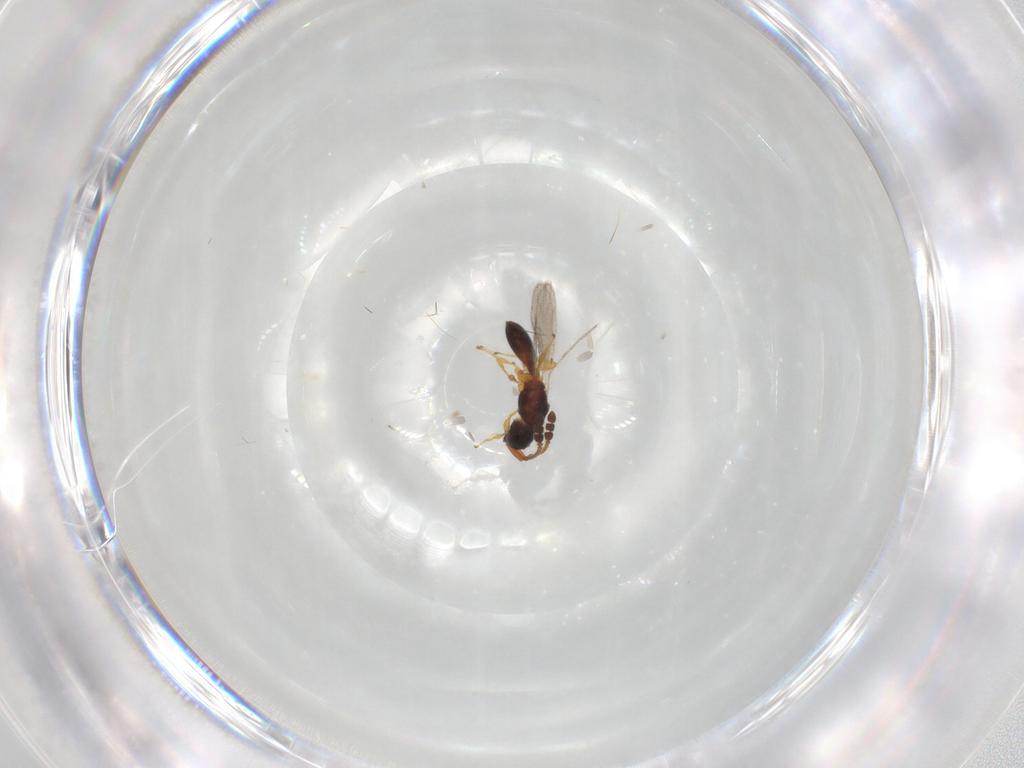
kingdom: Animalia
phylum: Arthropoda
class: Insecta
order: Hymenoptera
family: Diapriidae
